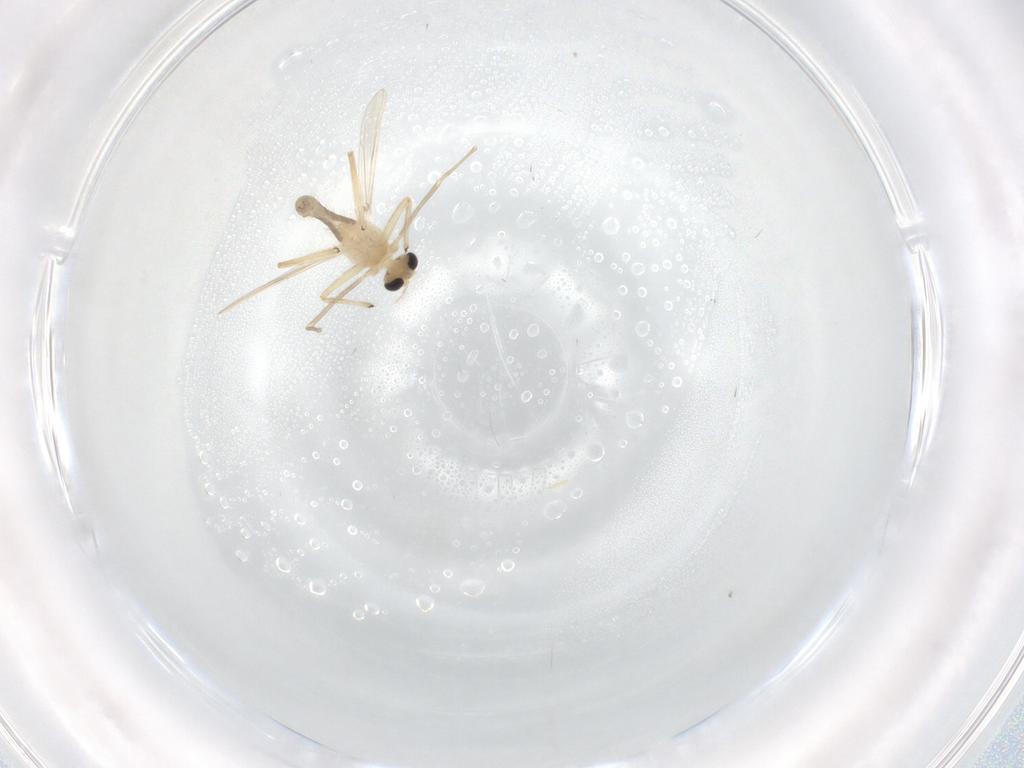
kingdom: Animalia
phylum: Arthropoda
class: Insecta
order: Diptera
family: Chironomidae
